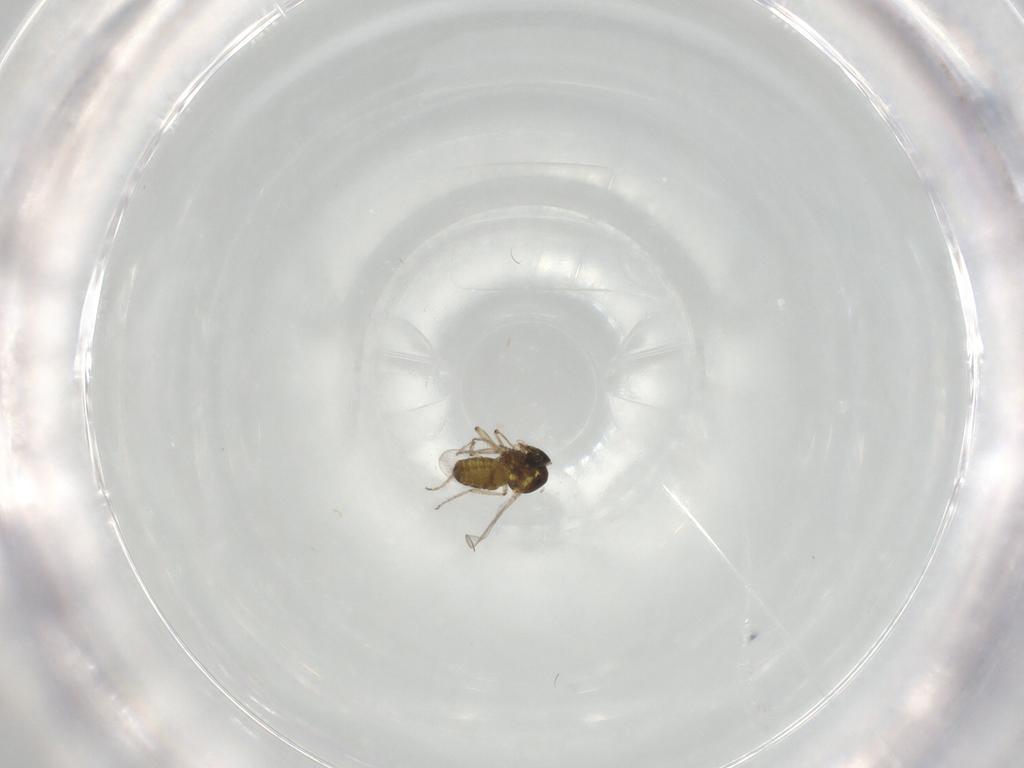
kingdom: Animalia
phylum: Arthropoda
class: Insecta
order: Diptera
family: Ceratopogonidae
